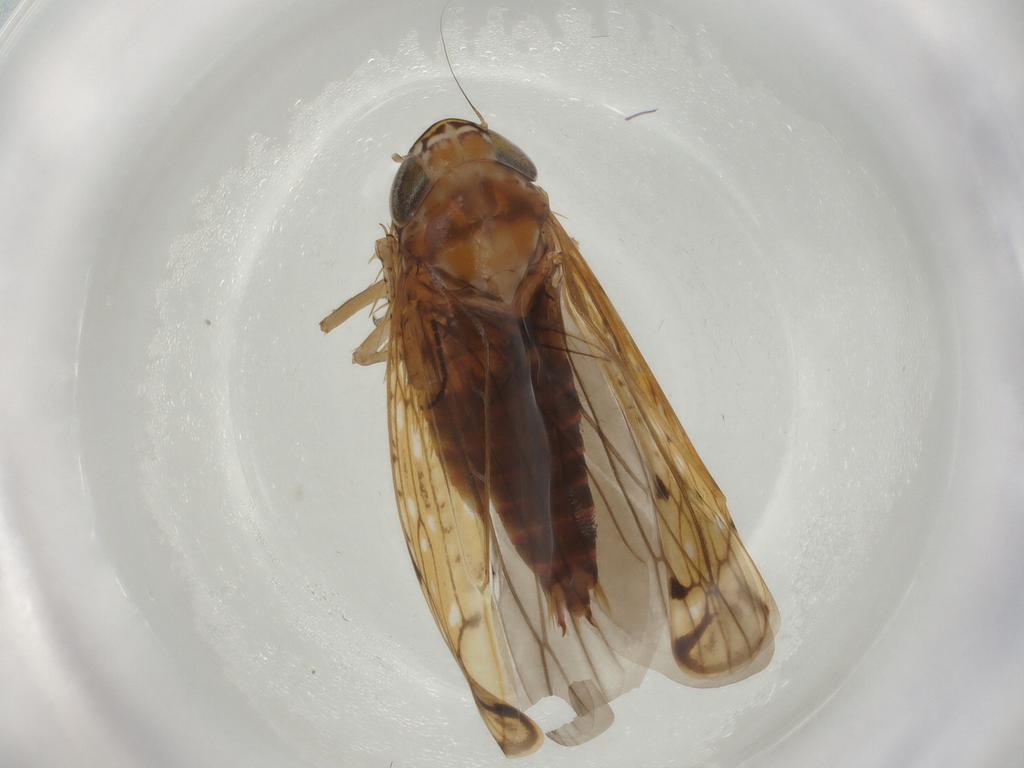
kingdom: Animalia
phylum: Arthropoda
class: Insecta
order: Hemiptera
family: Cicadellidae
